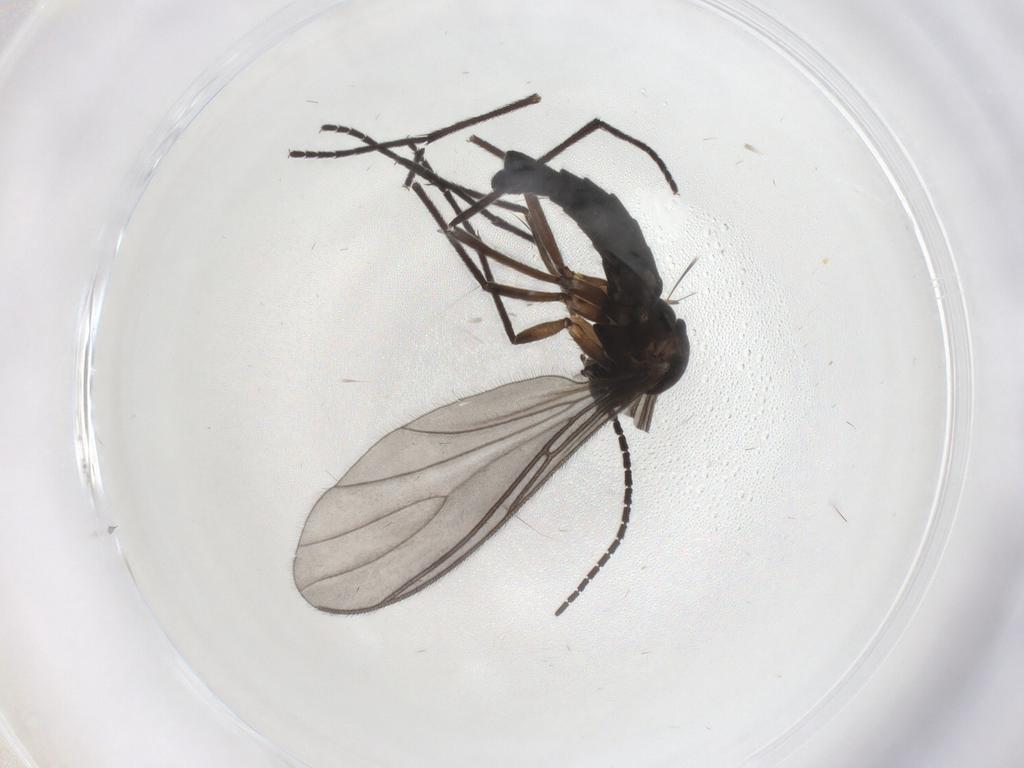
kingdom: Animalia
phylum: Arthropoda
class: Insecta
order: Diptera
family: Sciaridae
